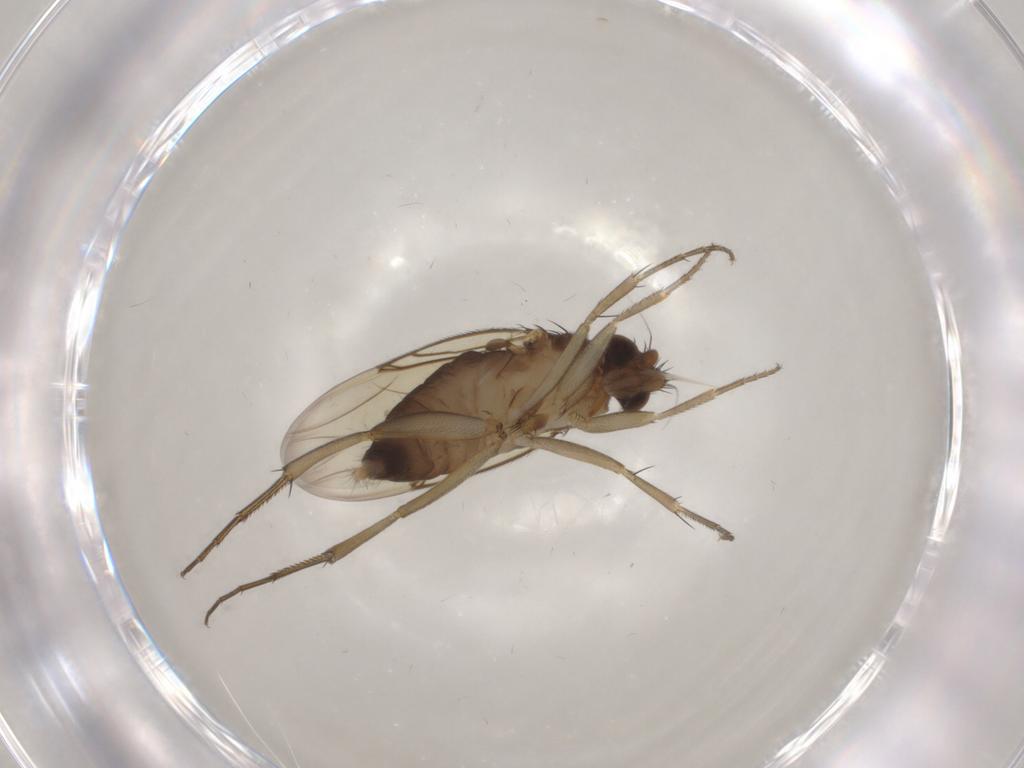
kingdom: Animalia
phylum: Arthropoda
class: Insecta
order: Diptera
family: Phoridae
